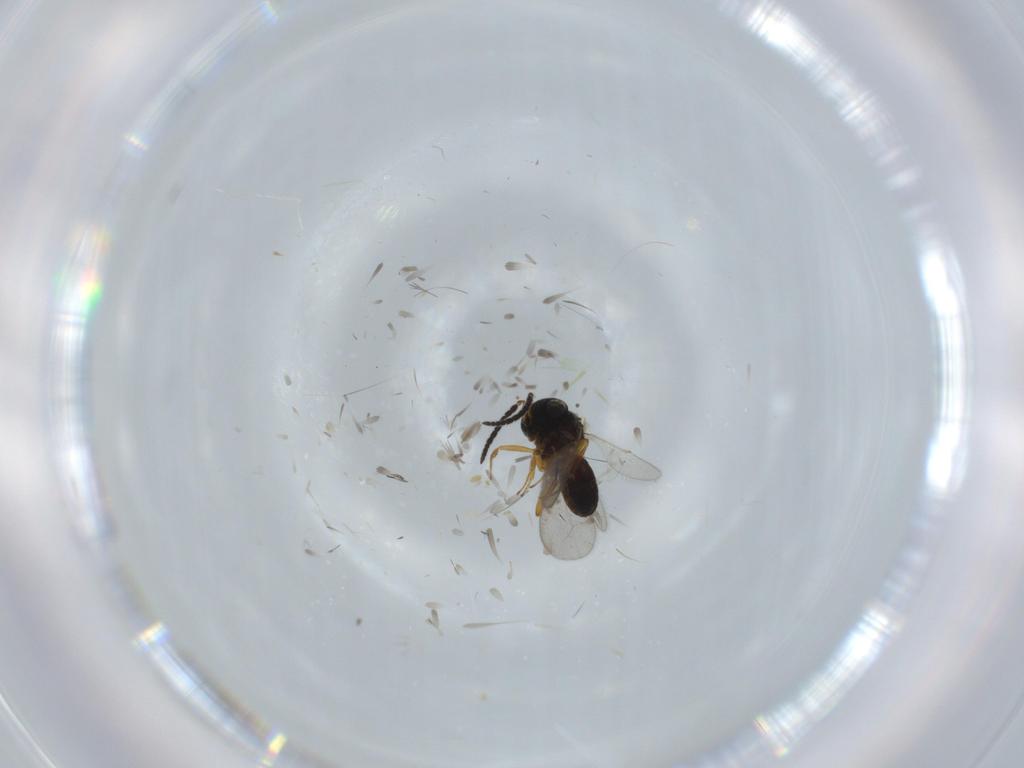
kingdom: Animalia
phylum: Arthropoda
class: Insecta
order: Hymenoptera
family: Scelionidae
